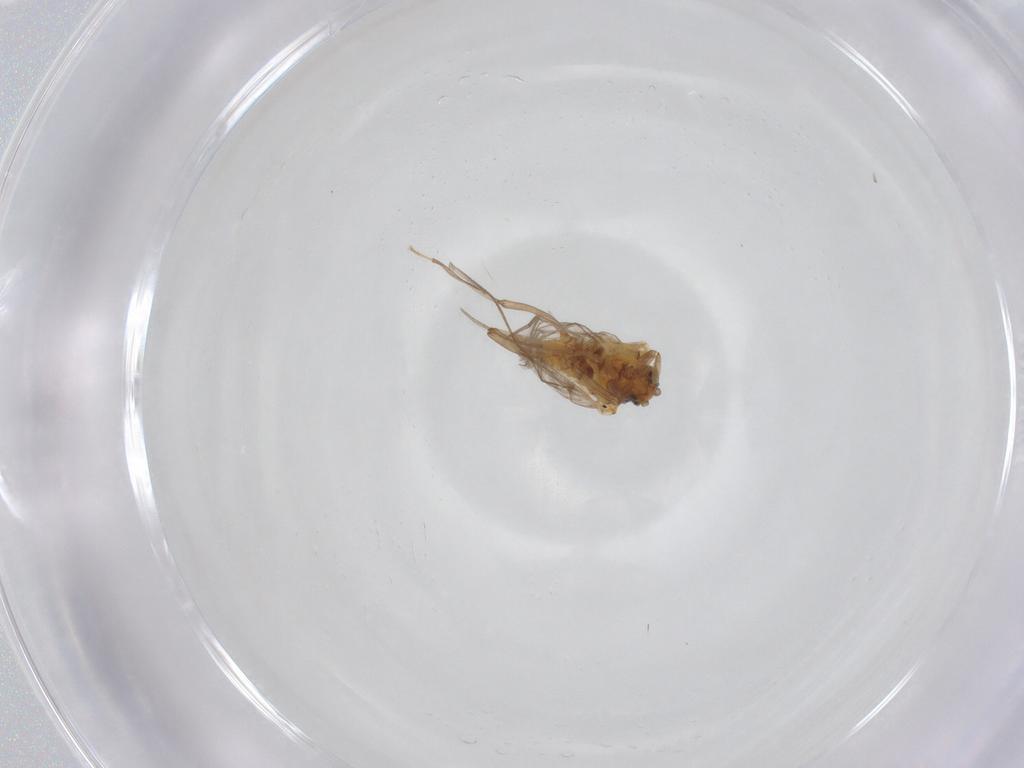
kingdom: Animalia
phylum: Arthropoda
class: Insecta
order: Neuroptera
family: Coniopterygidae
